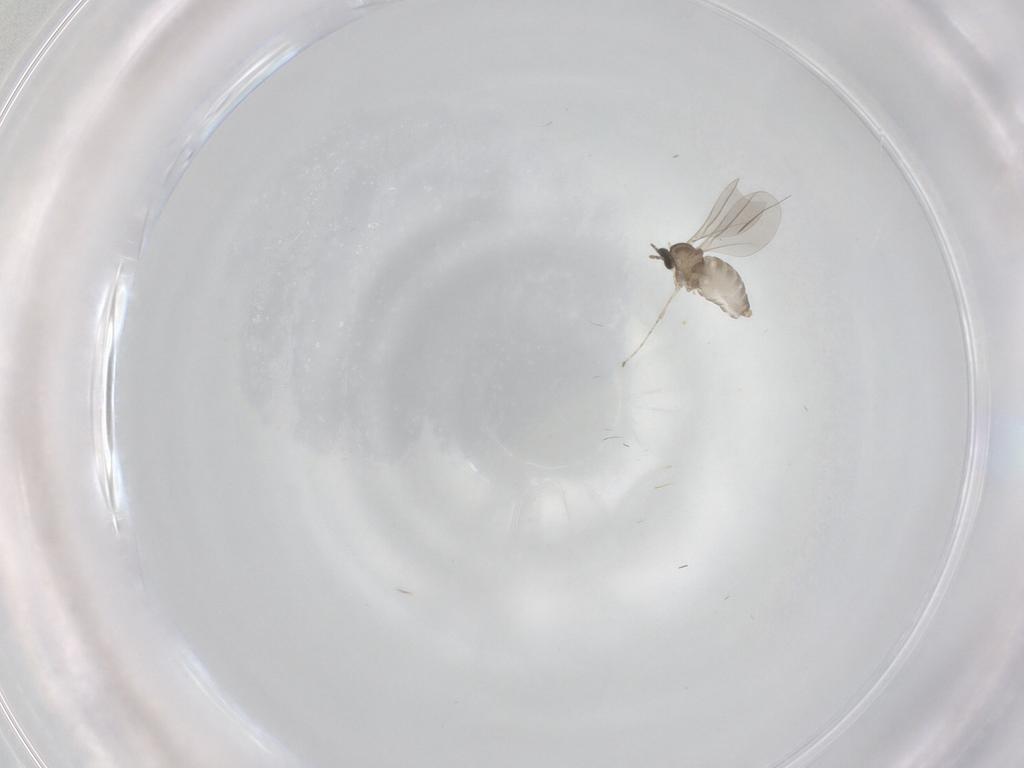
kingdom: Animalia
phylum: Arthropoda
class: Insecta
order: Diptera
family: Cecidomyiidae
